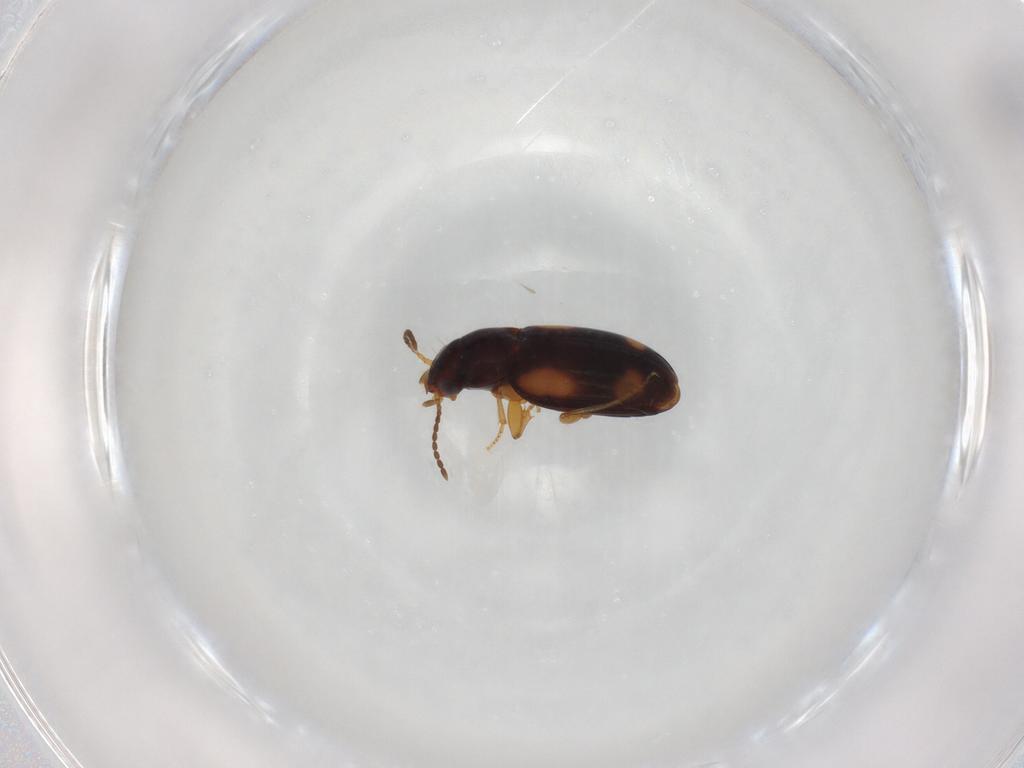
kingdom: Animalia
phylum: Arthropoda
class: Insecta
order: Coleoptera
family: Carabidae
